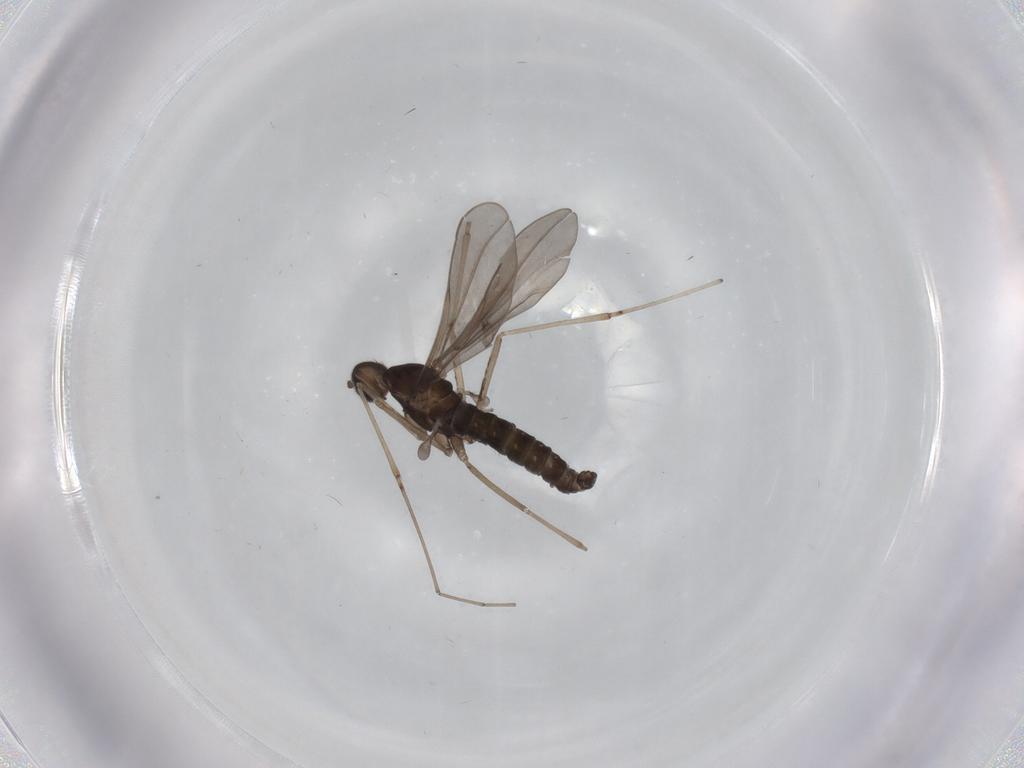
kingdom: Animalia
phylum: Arthropoda
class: Insecta
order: Diptera
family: Cecidomyiidae
